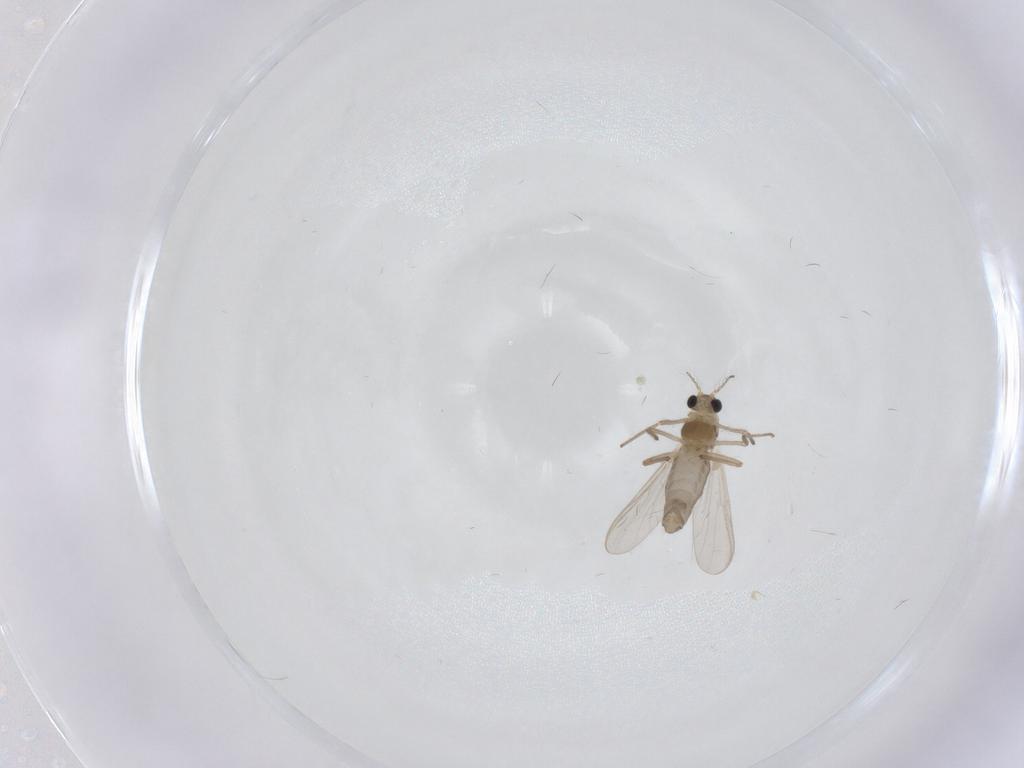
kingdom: Animalia
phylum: Arthropoda
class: Insecta
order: Diptera
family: Chironomidae
